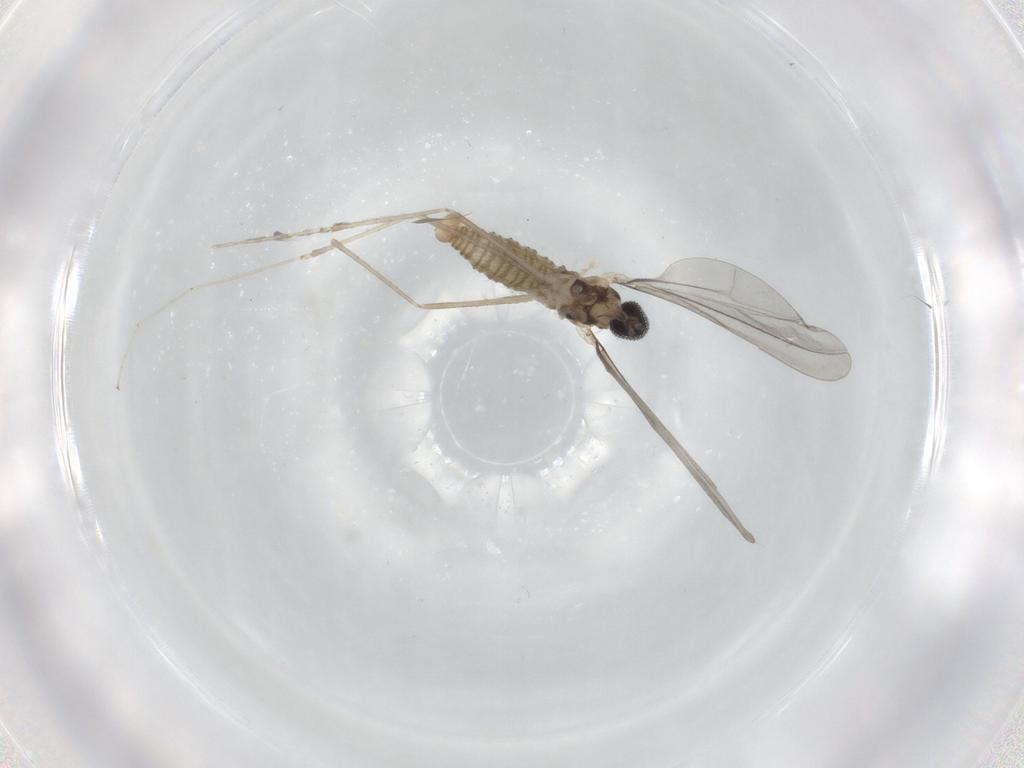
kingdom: Animalia
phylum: Arthropoda
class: Insecta
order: Diptera
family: Cecidomyiidae
